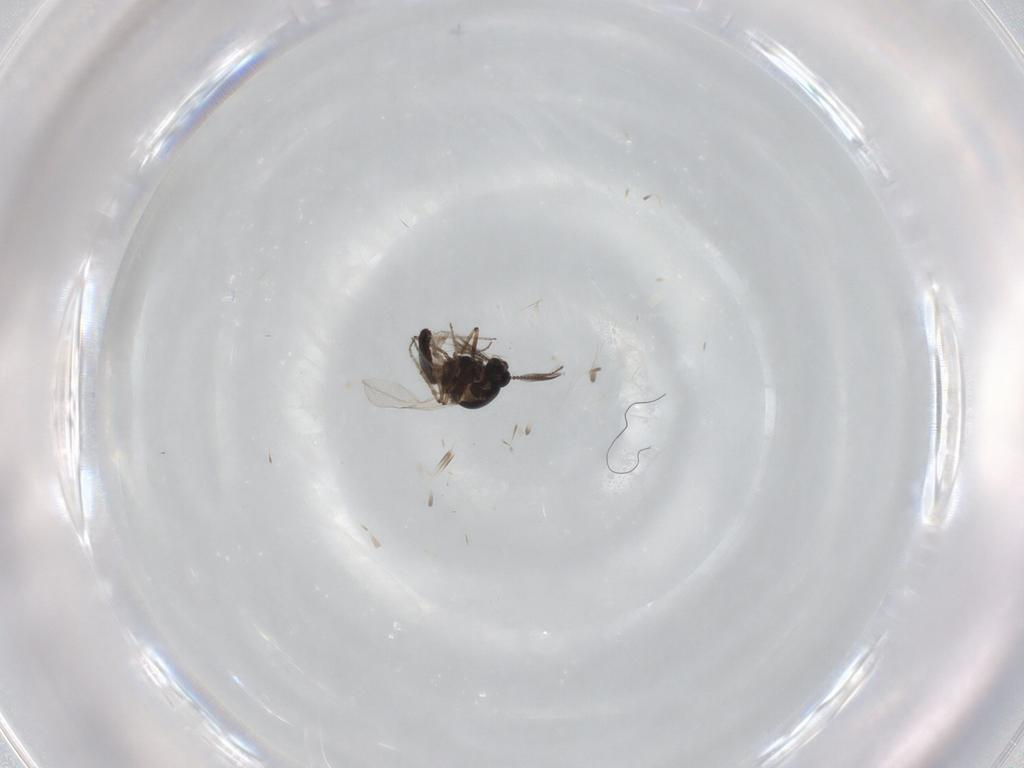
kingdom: Animalia
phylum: Arthropoda
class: Insecta
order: Diptera
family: Ceratopogonidae
